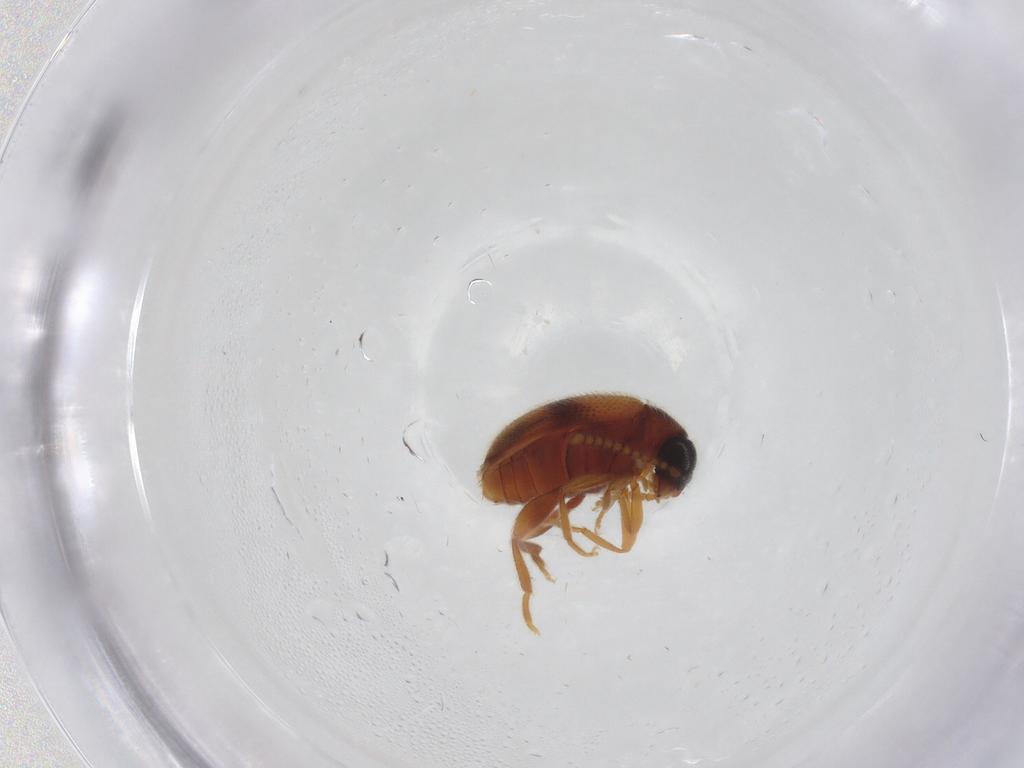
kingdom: Animalia
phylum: Arthropoda
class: Insecta
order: Coleoptera
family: Aderidae
